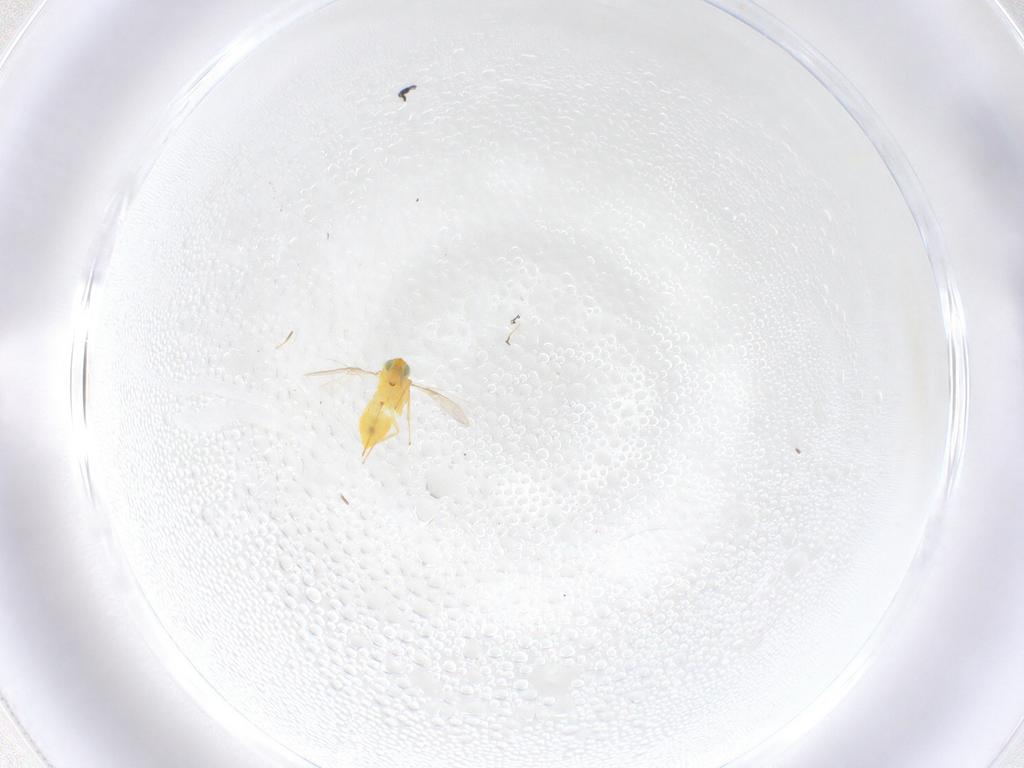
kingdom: Animalia
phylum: Arthropoda
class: Insecta
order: Hymenoptera
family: Aphelinidae
